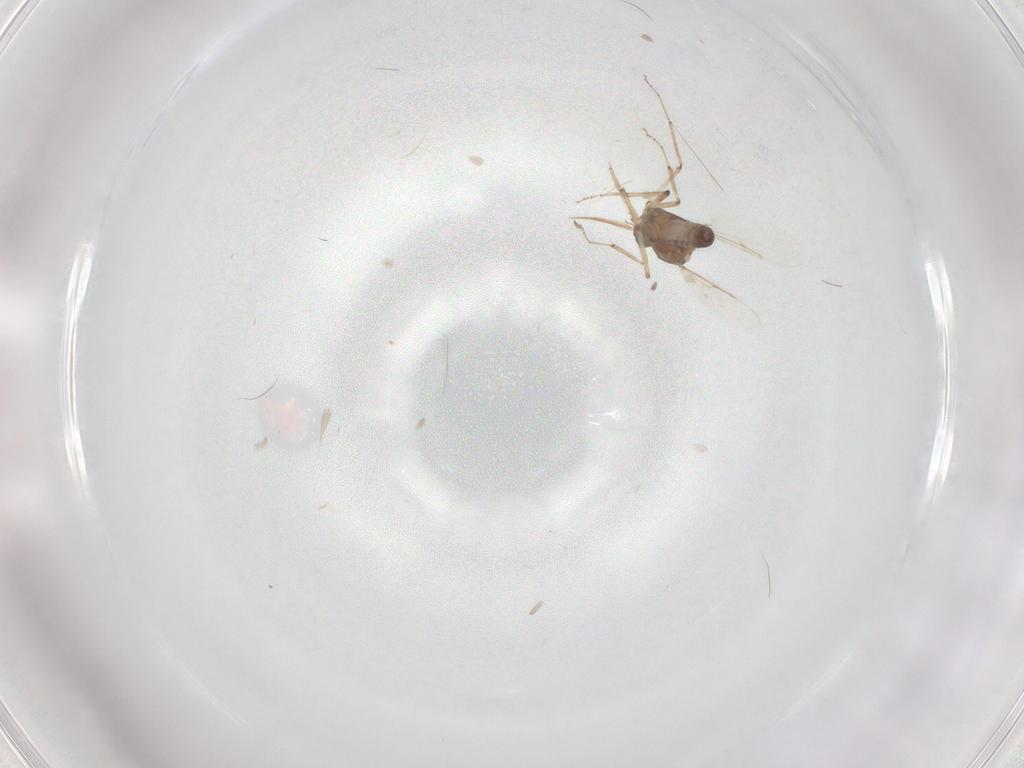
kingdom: Animalia
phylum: Arthropoda
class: Insecta
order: Diptera
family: Ceratopogonidae
